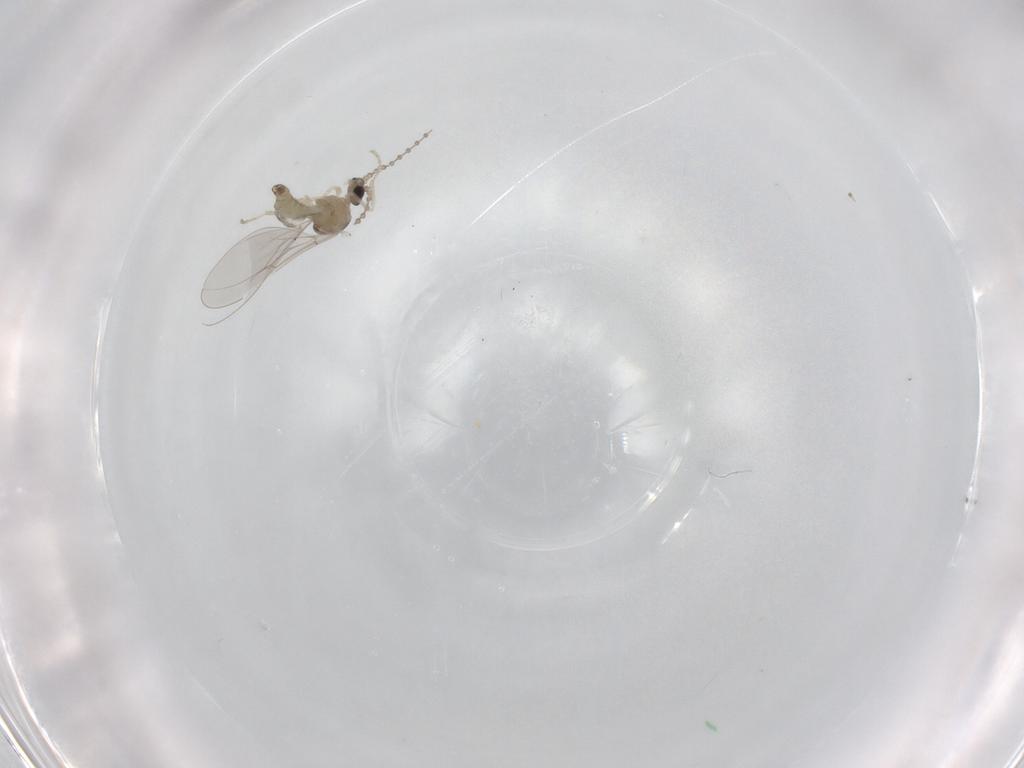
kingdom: Animalia
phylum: Arthropoda
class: Insecta
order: Diptera
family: Cecidomyiidae
